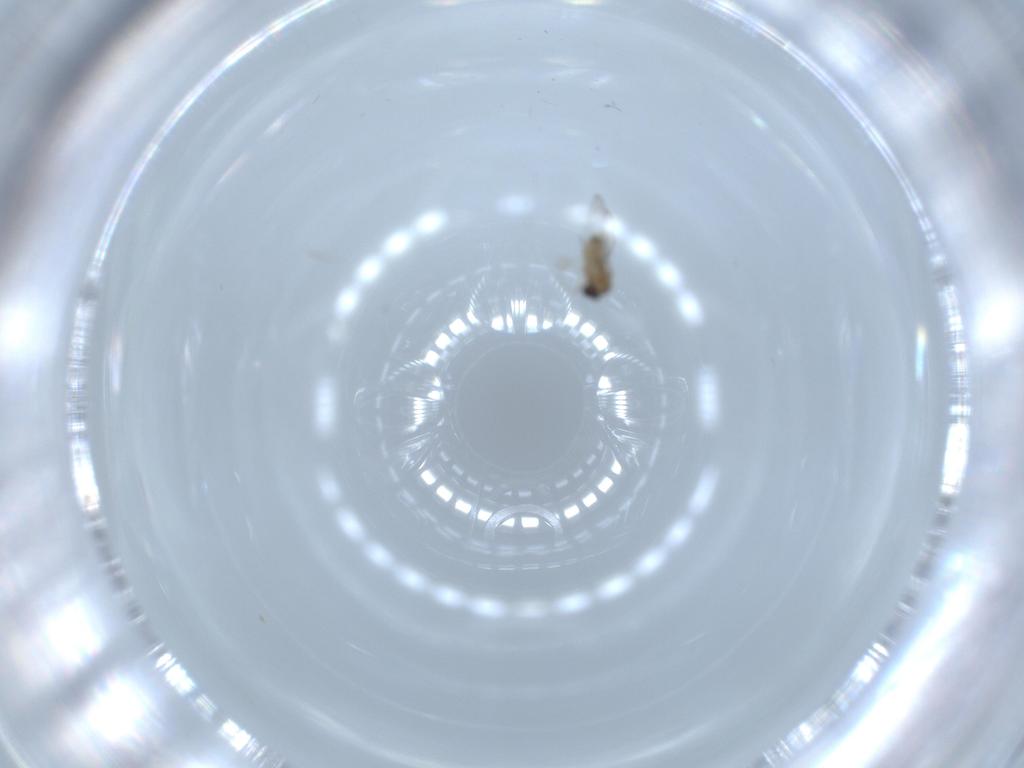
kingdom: Animalia
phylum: Arthropoda
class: Insecta
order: Diptera
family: Cecidomyiidae
